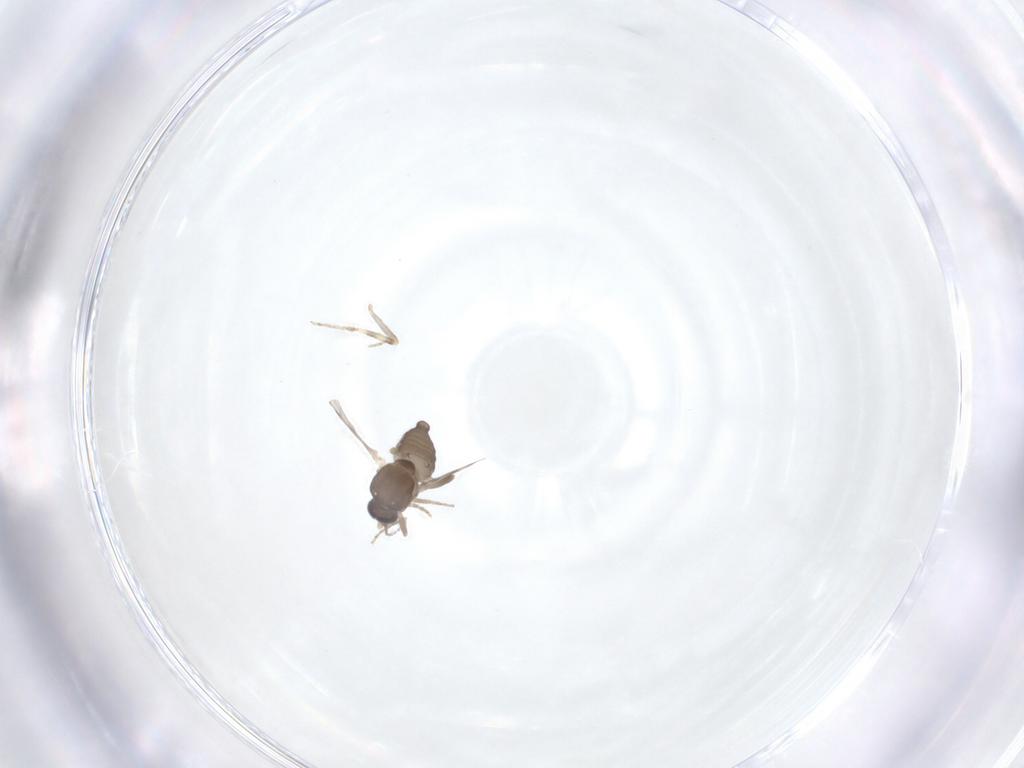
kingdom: Animalia
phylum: Arthropoda
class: Insecta
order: Diptera
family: Ceratopogonidae
